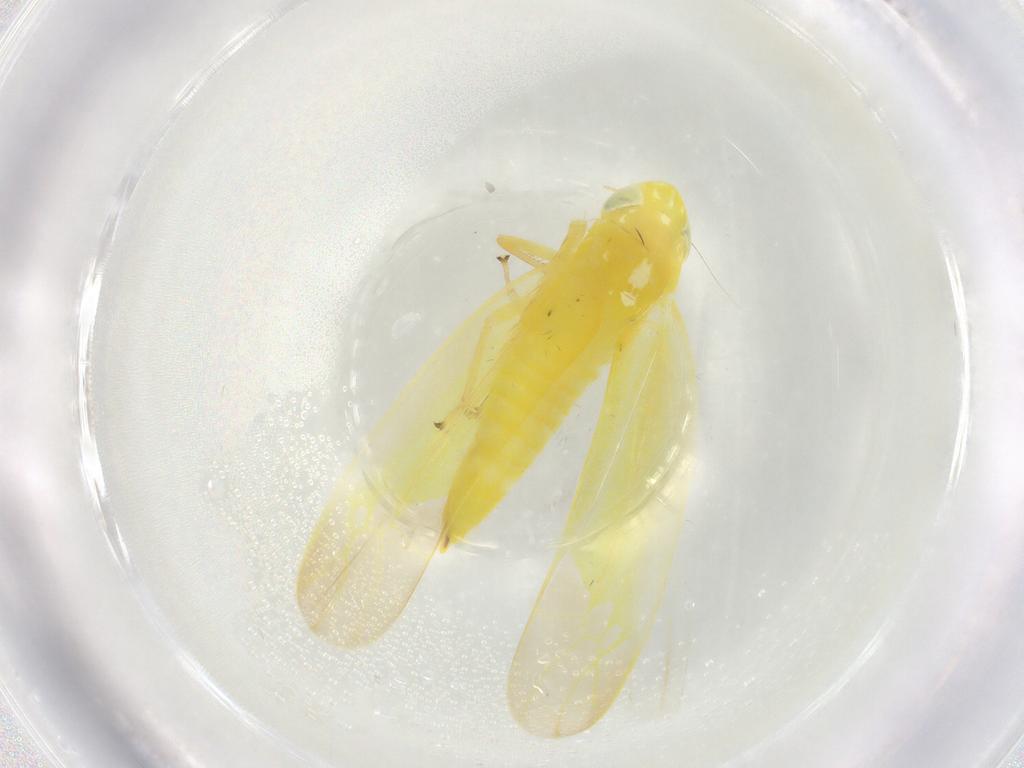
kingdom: Animalia
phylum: Arthropoda
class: Insecta
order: Hemiptera
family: Cicadellidae
